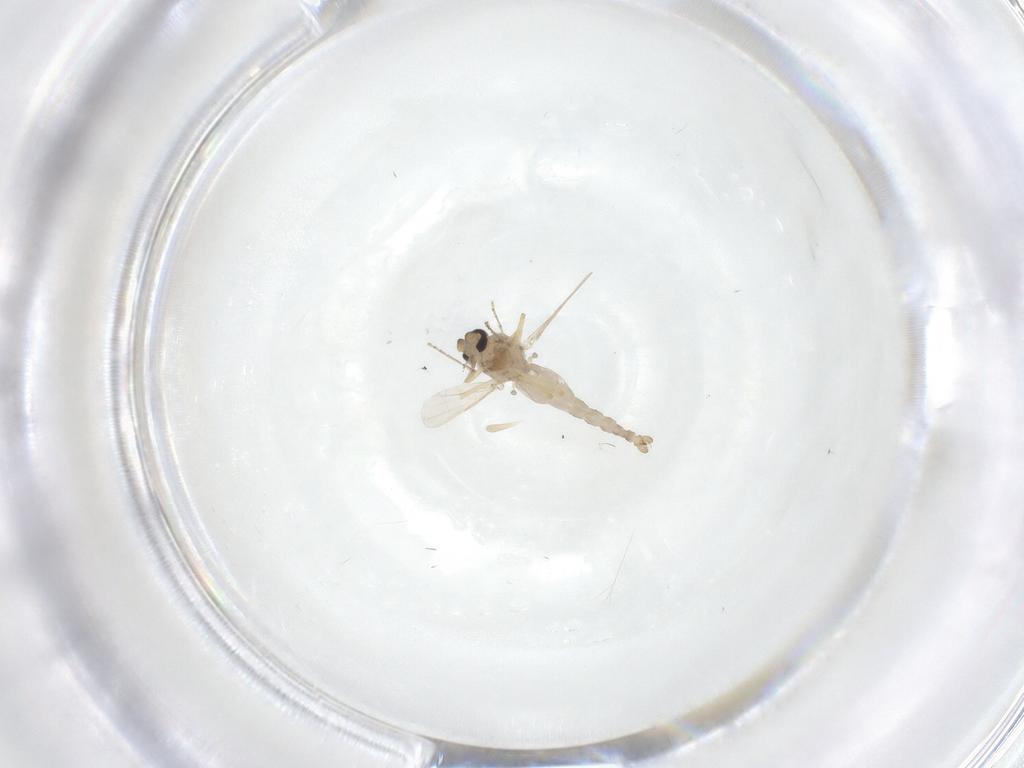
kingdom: Animalia
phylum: Arthropoda
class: Insecta
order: Diptera
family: Ceratopogonidae
